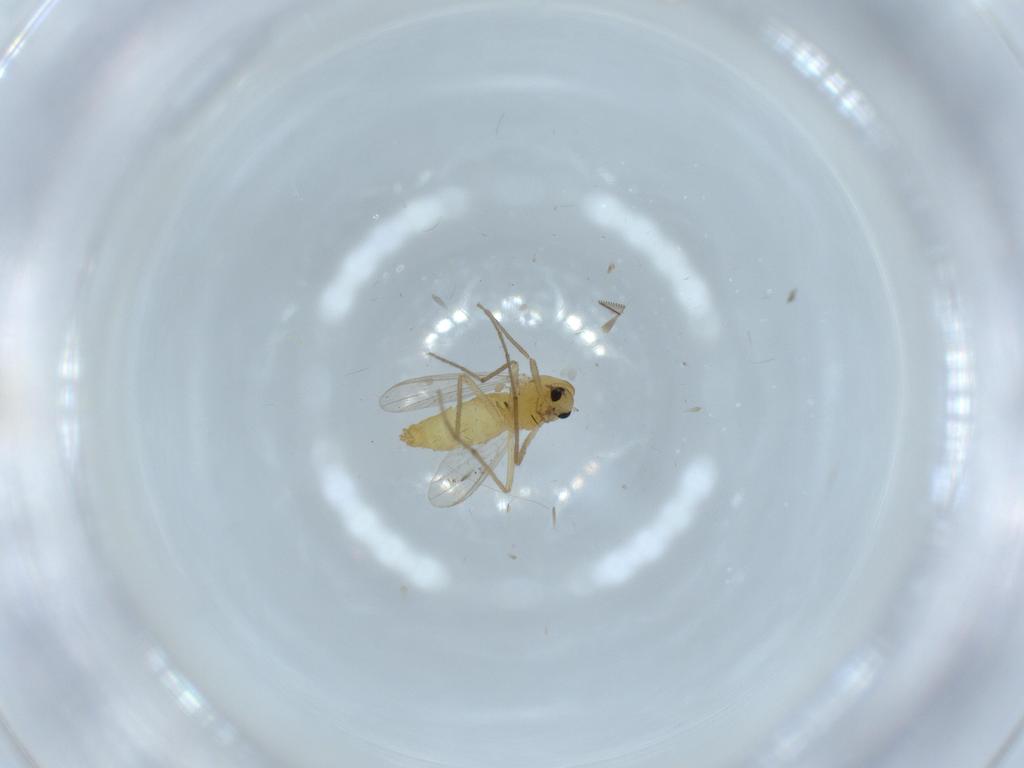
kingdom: Animalia
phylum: Arthropoda
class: Insecta
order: Diptera
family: Chironomidae
